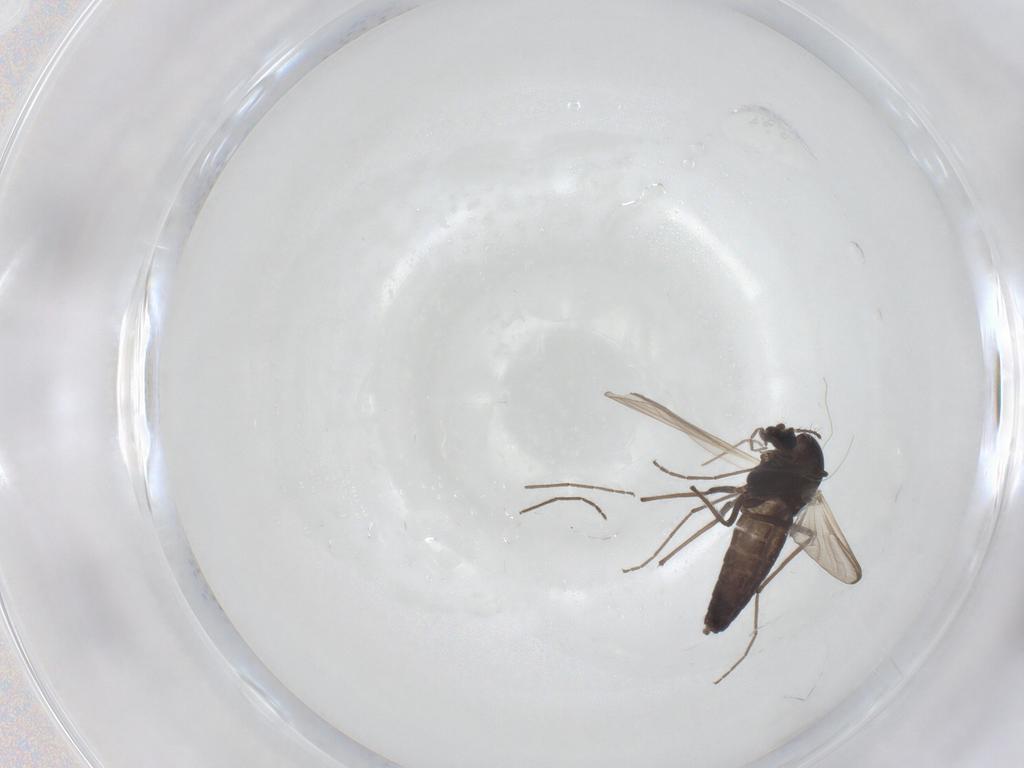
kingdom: Animalia
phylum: Arthropoda
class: Insecta
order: Diptera
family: Chironomidae
